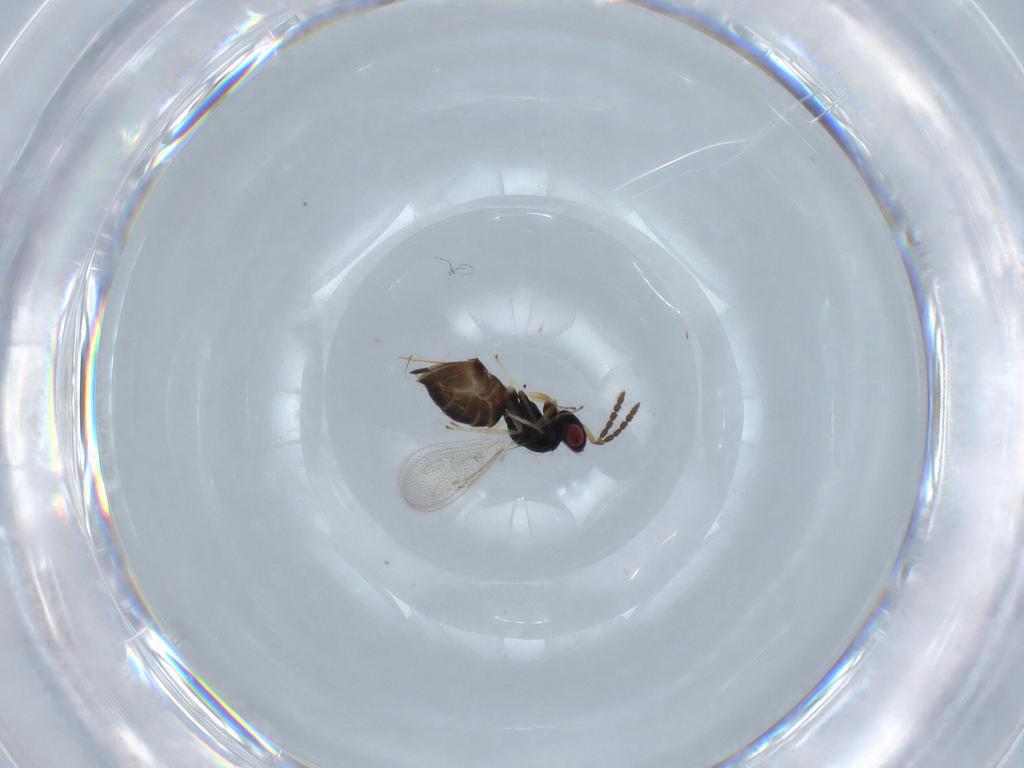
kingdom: Animalia
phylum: Arthropoda
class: Insecta
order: Hymenoptera
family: Eulophidae
